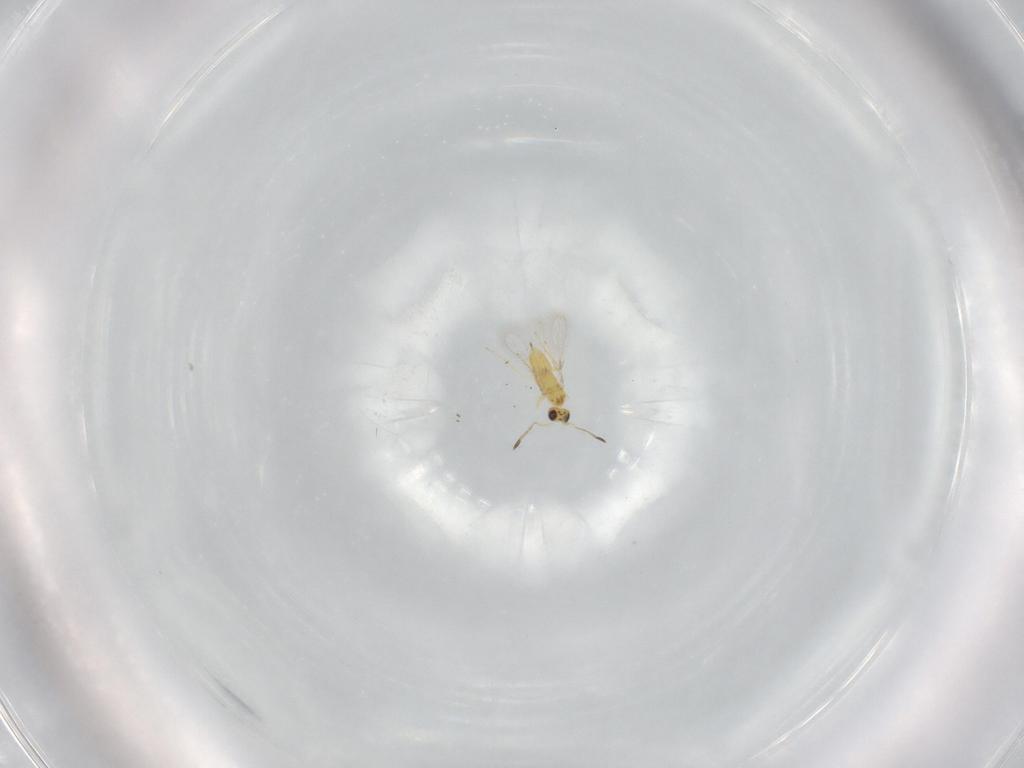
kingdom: Animalia
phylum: Arthropoda
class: Insecta
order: Hymenoptera
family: Mymaridae
